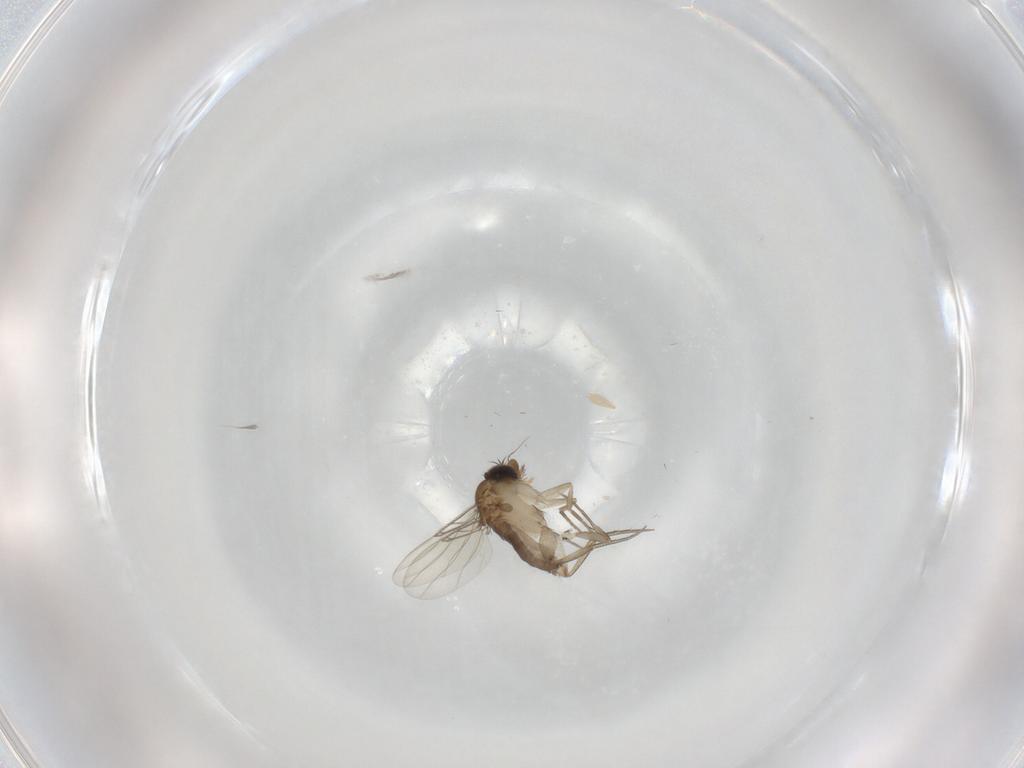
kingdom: Animalia
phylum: Arthropoda
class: Insecta
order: Diptera
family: Phoridae
